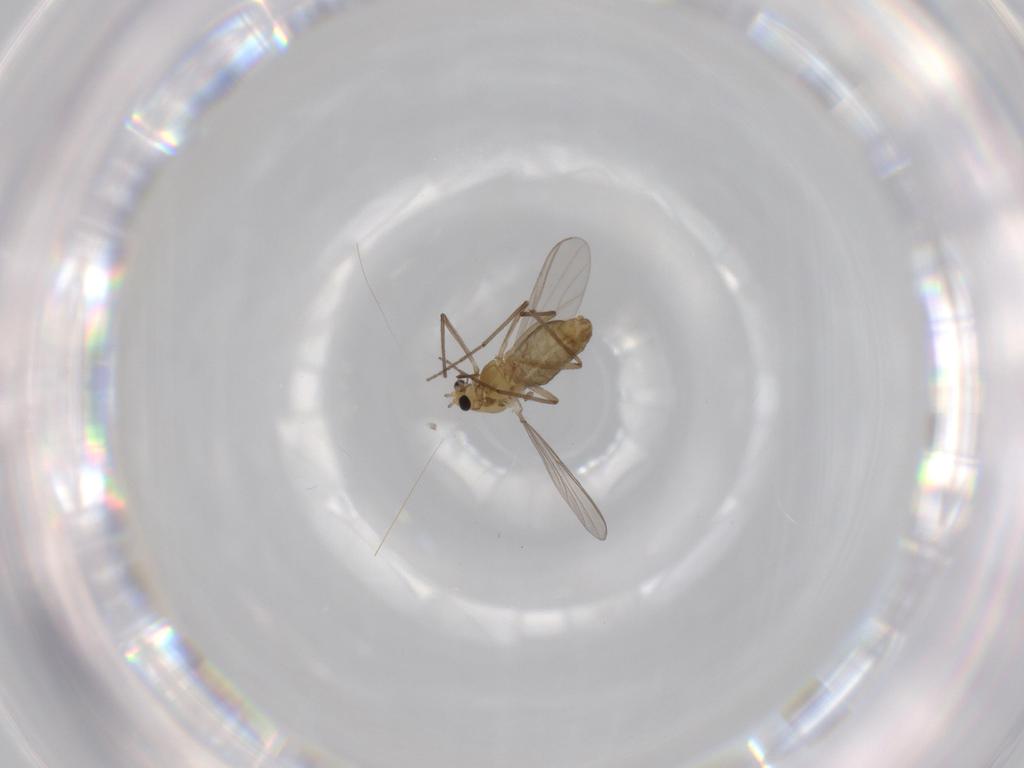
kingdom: Animalia
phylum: Arthropoda
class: Insecta
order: Diptera
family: Chironomidae
